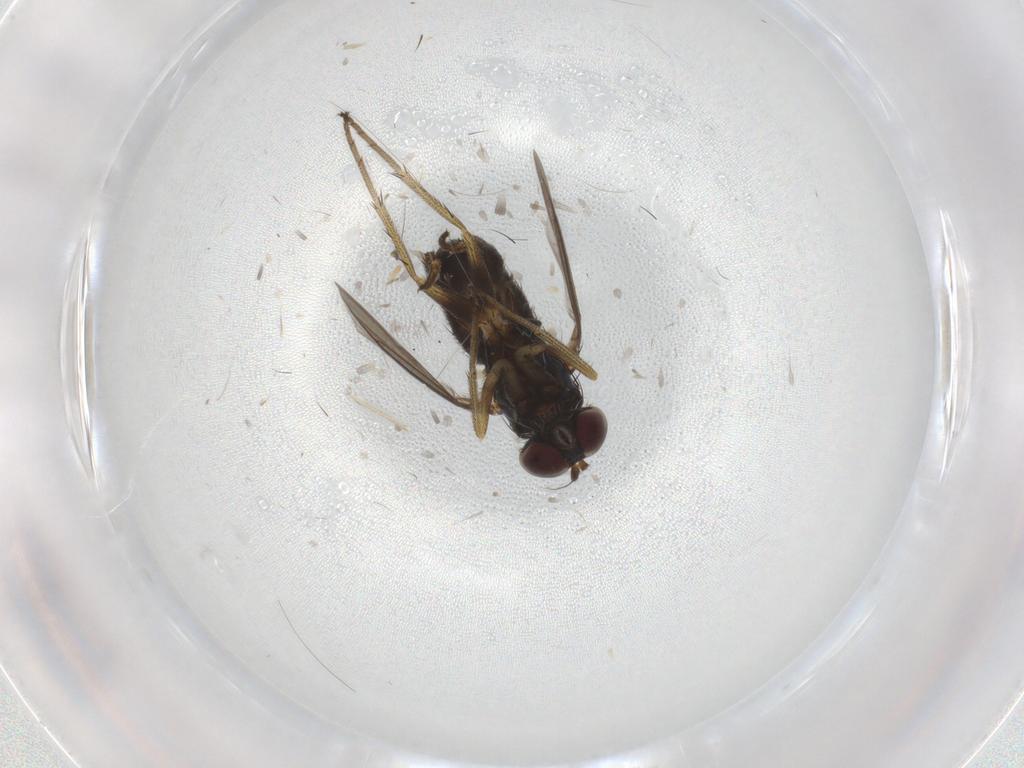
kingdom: Animalia
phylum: Arthropoda
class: Insecta
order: Diptera
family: Ceratopogonidae
